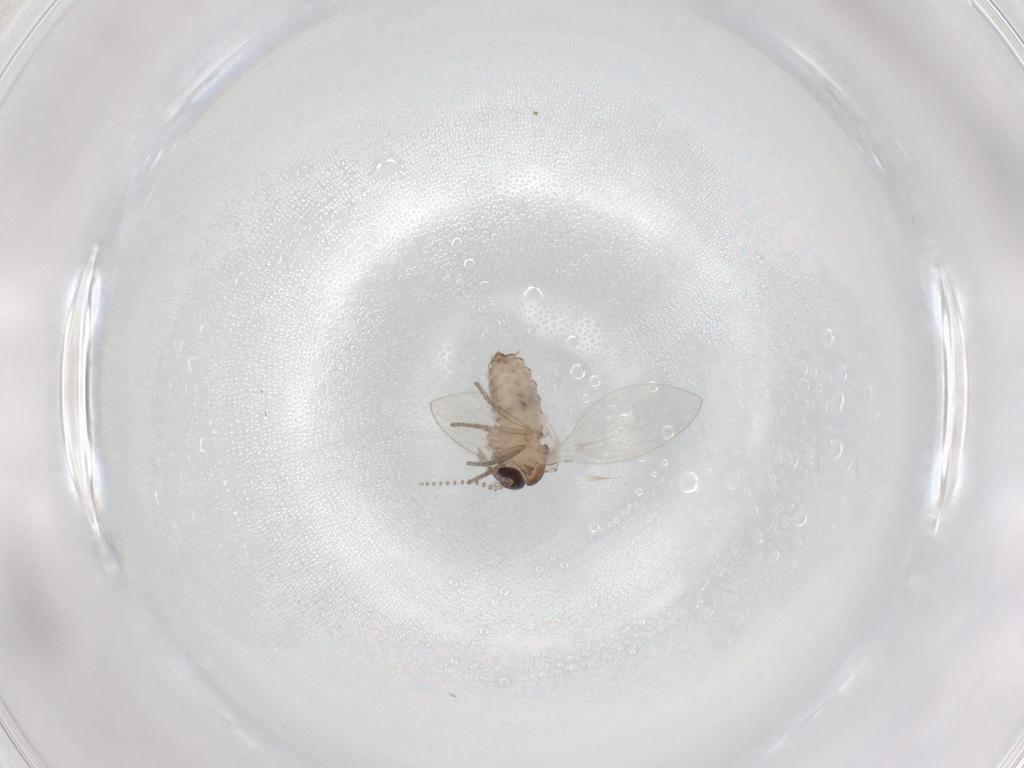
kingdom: Animalia
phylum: Arthropoda
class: Insecta
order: Diptera
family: Psychodidae
